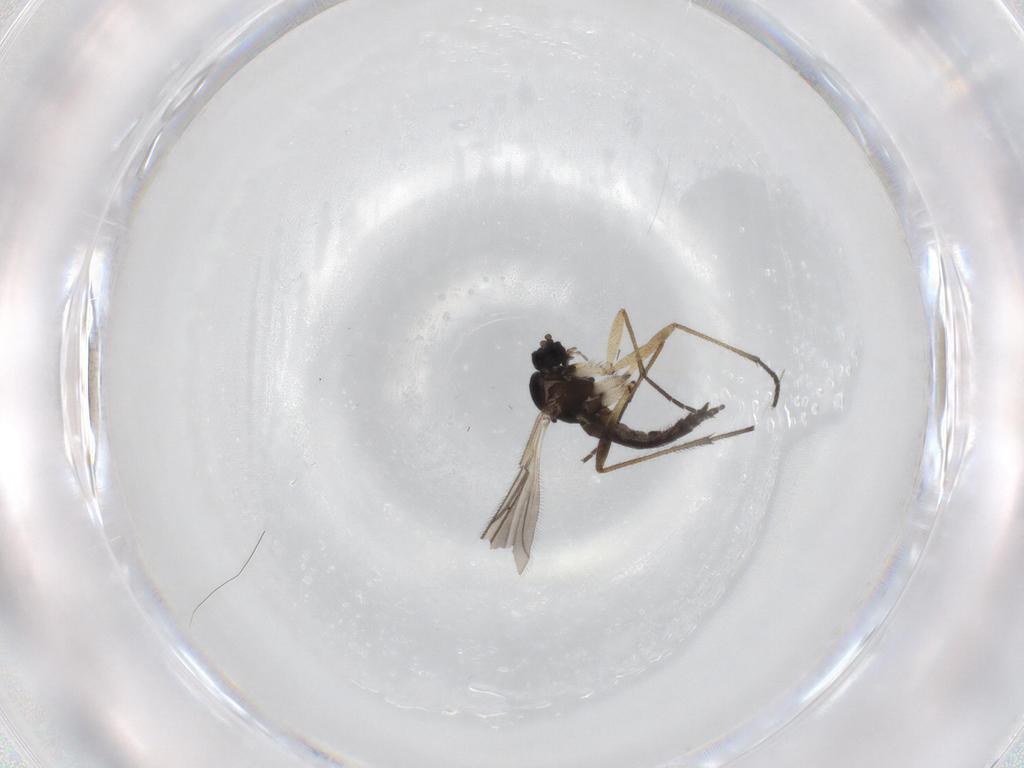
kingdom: Animalia
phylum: Arthropoda
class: Insecta
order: Diptera
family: Sciaridae
